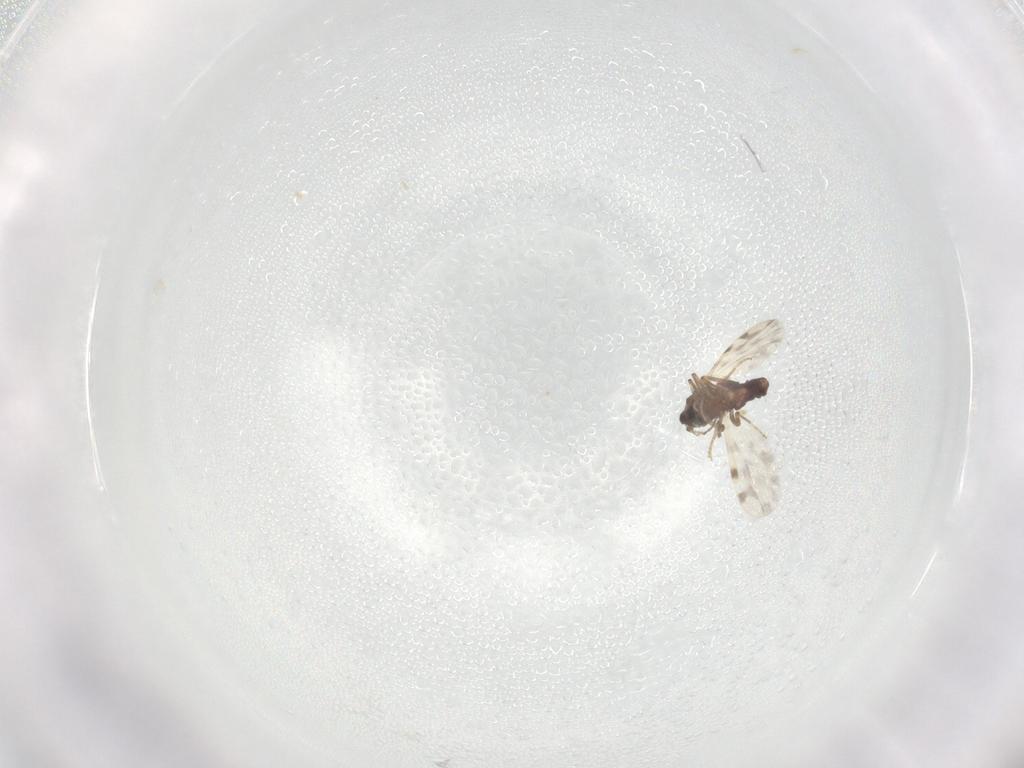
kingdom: Animalia
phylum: Arthropoda
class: Insecta
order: Diptera
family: Ceratopogonidae
